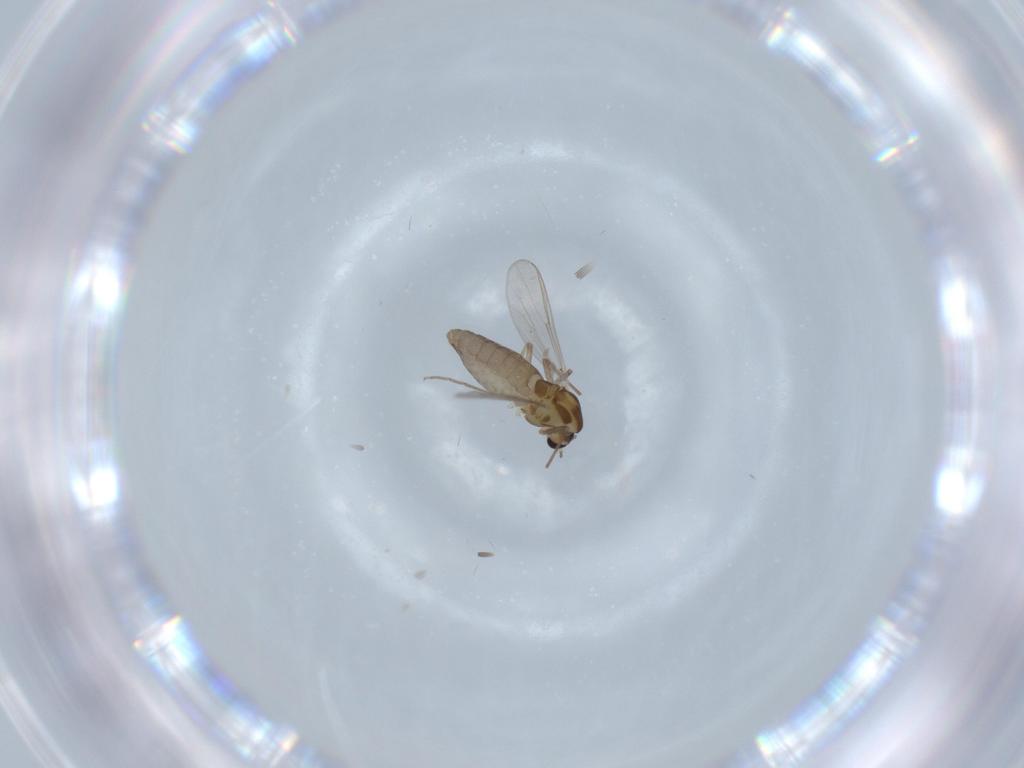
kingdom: Animalia
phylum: Arthropoda
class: Insecta
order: Diptera
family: Chironomidae
